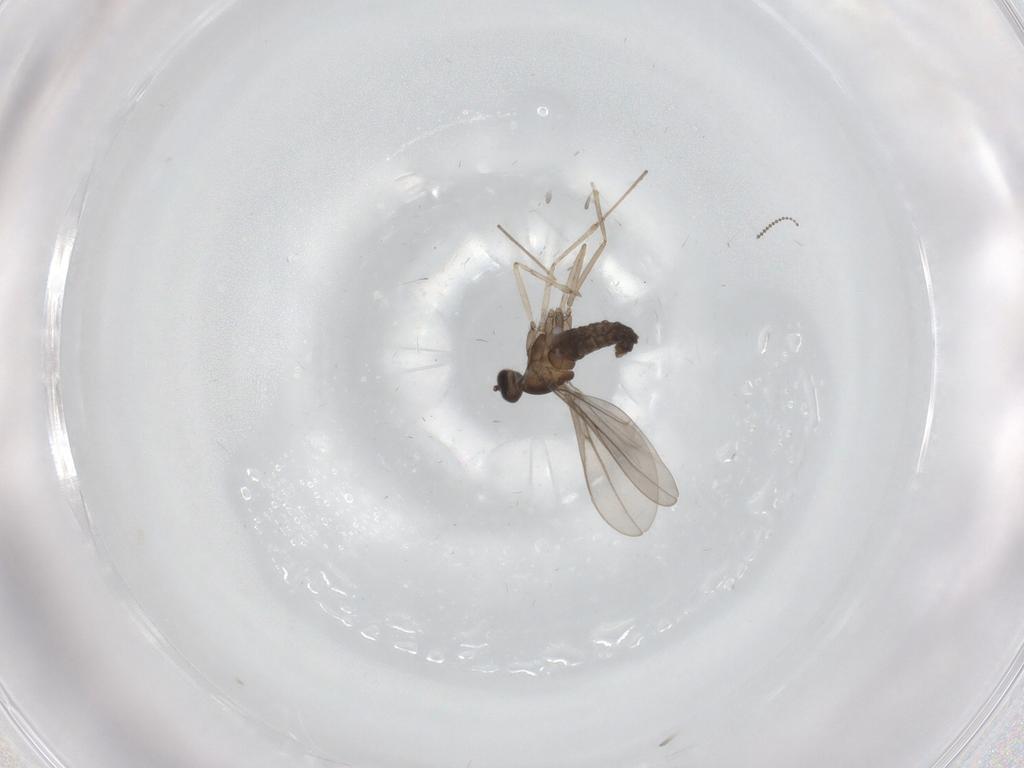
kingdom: Animalia
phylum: Arthropoda
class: Insecta
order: Diptera
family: Cecidomyiidae
